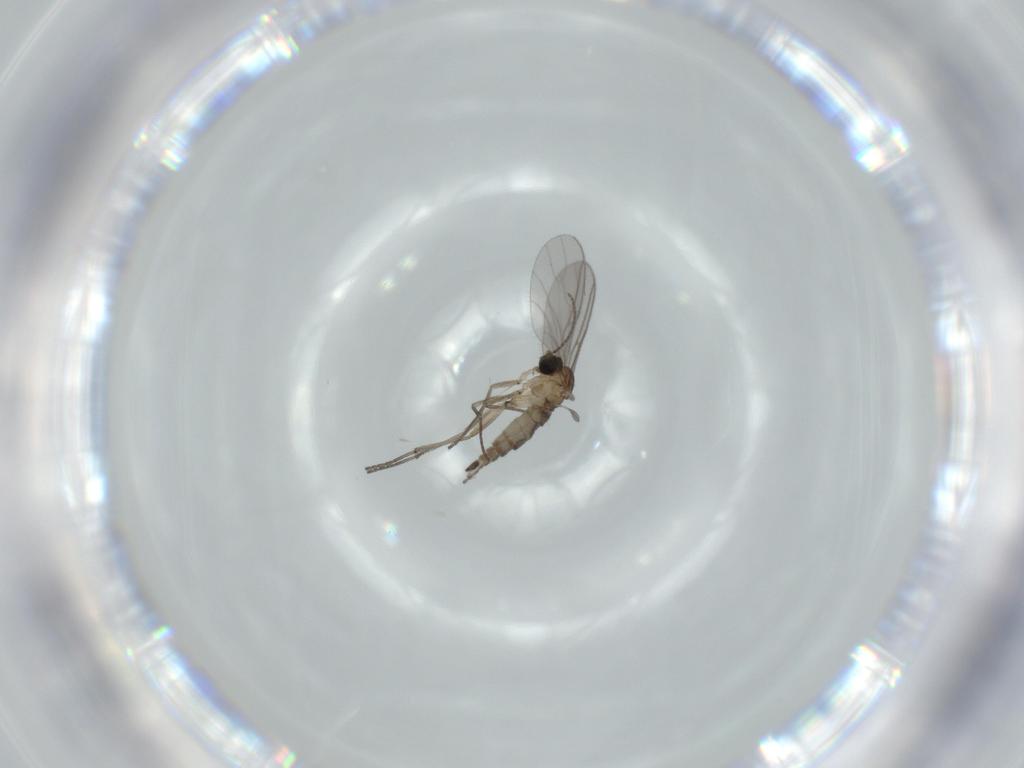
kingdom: Animalia
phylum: Arthropoda
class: Insecta
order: Diptera
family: Sciaridae
